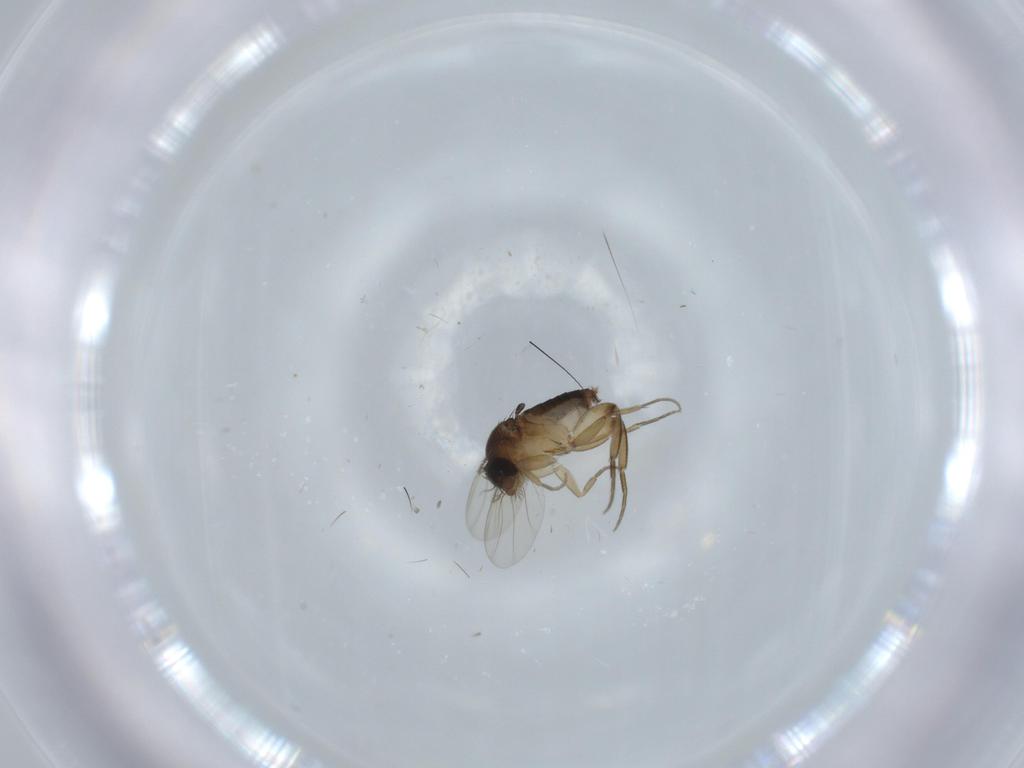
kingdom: Animalia
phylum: Arthropoda
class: Insecta
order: Diptera
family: Phoridae
